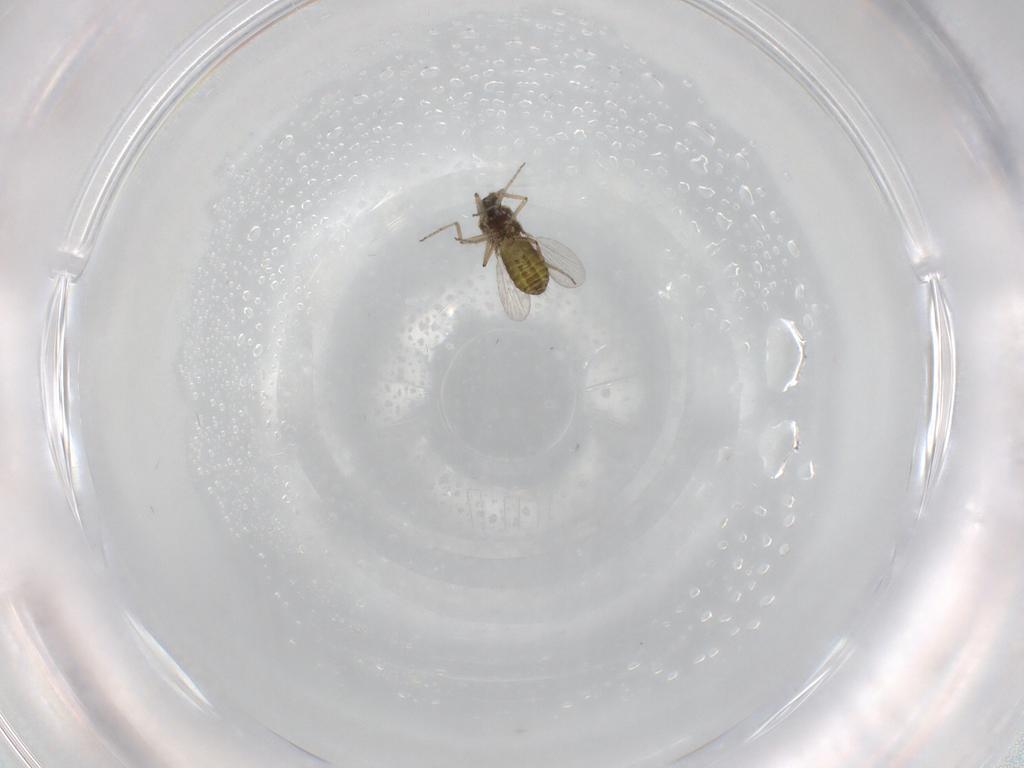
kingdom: Animalia
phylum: Arthropoda
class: Insecta
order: Diptera
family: Ceratopogonidae
